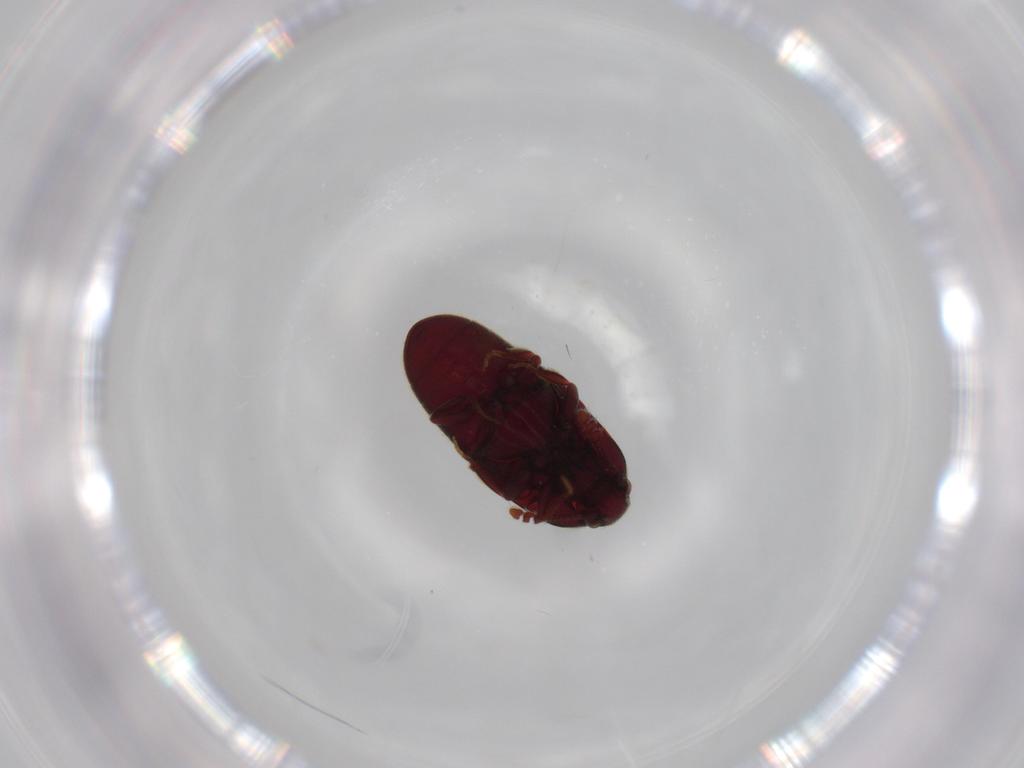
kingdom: Animalia
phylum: Arthropoda
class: Insecta
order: Coleoptera
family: Throscidae
